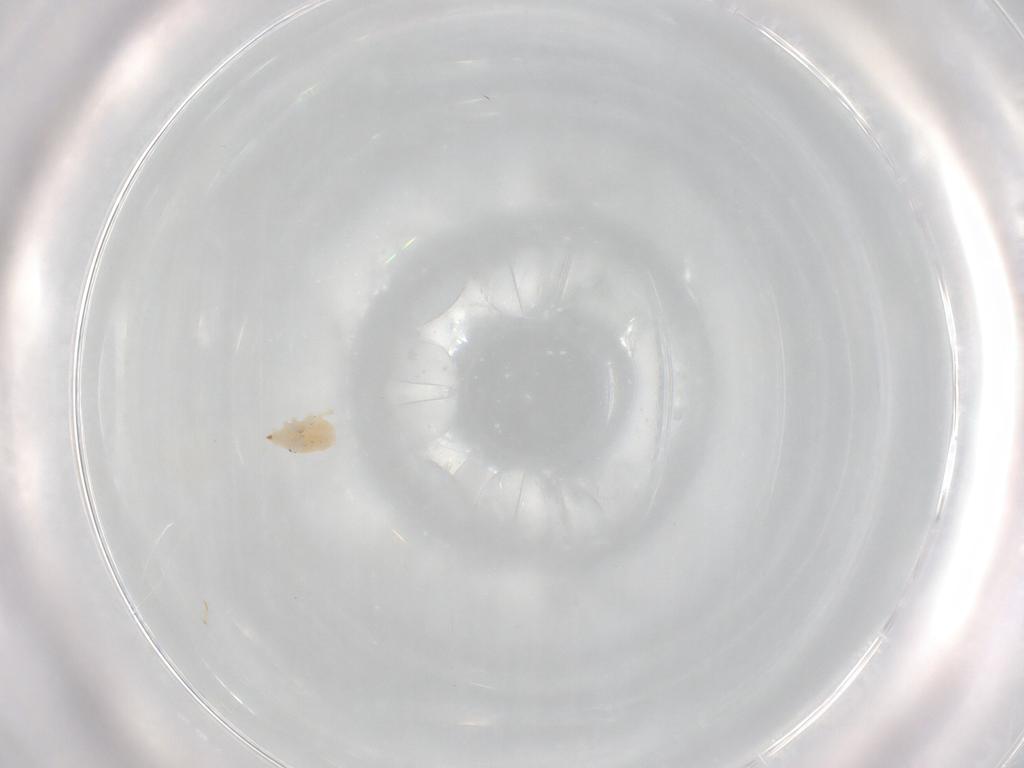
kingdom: Animalia
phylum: Arthropoda
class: Arachnida
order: Trombidiformes
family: Bdellidae
